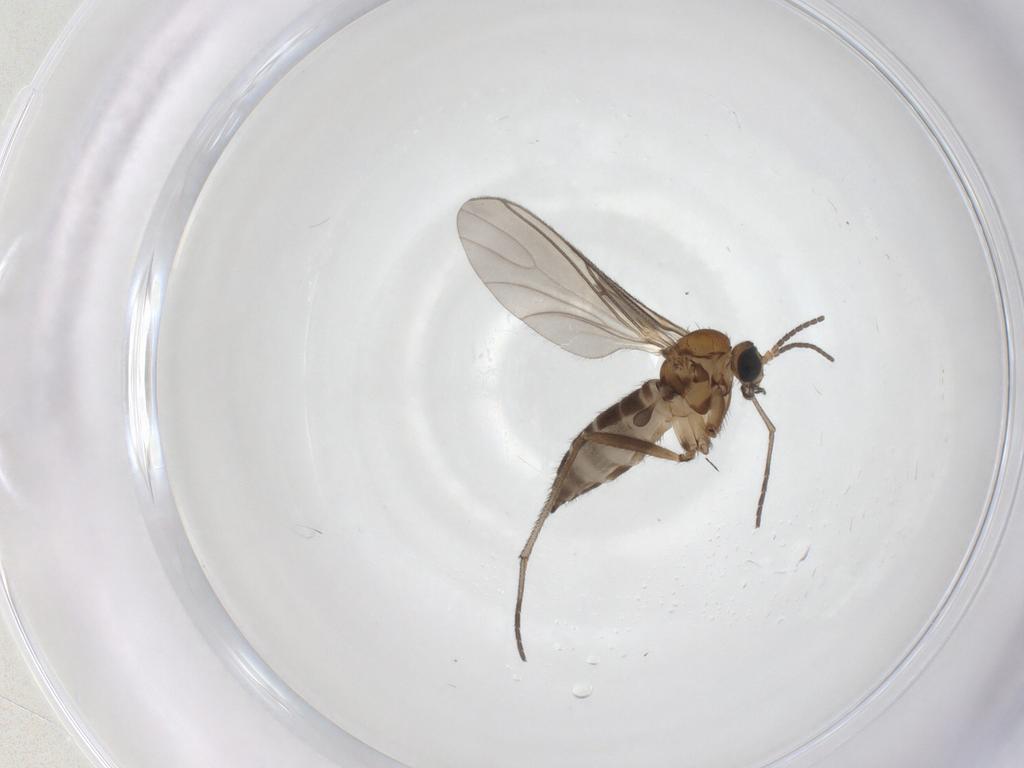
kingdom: Animalia
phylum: Arthropoda
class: Insecta
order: Diptera
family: Sciaridae
